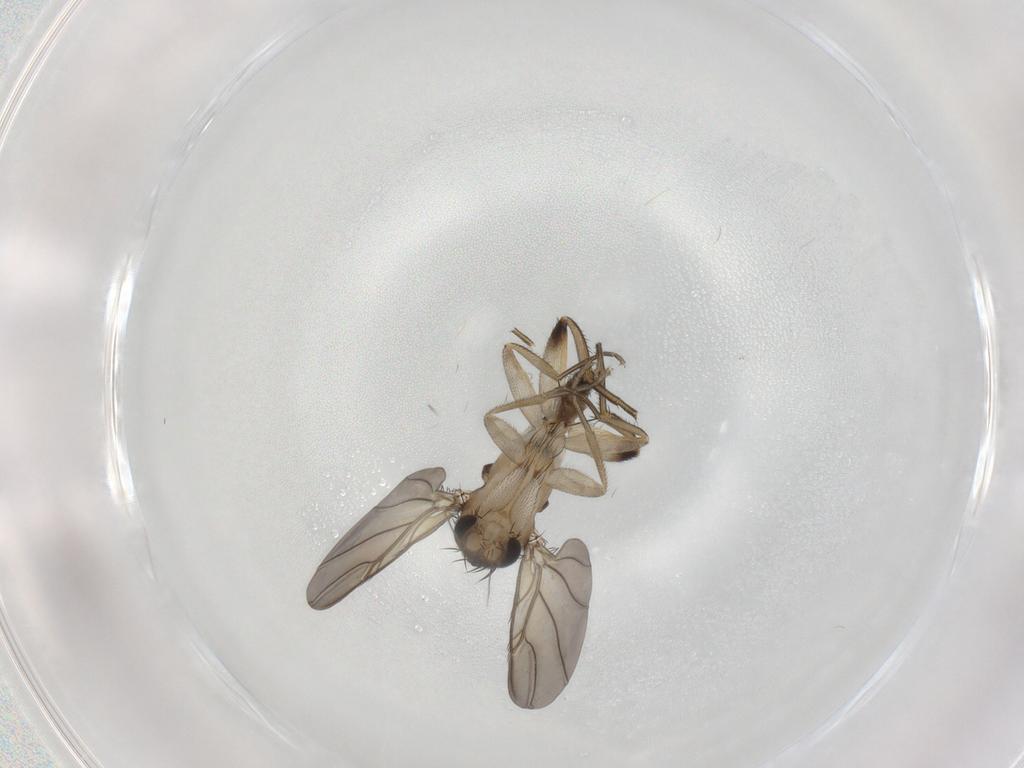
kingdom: Animalia
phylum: Arthropoda
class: Insecta
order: Diptera
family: Phoridae
